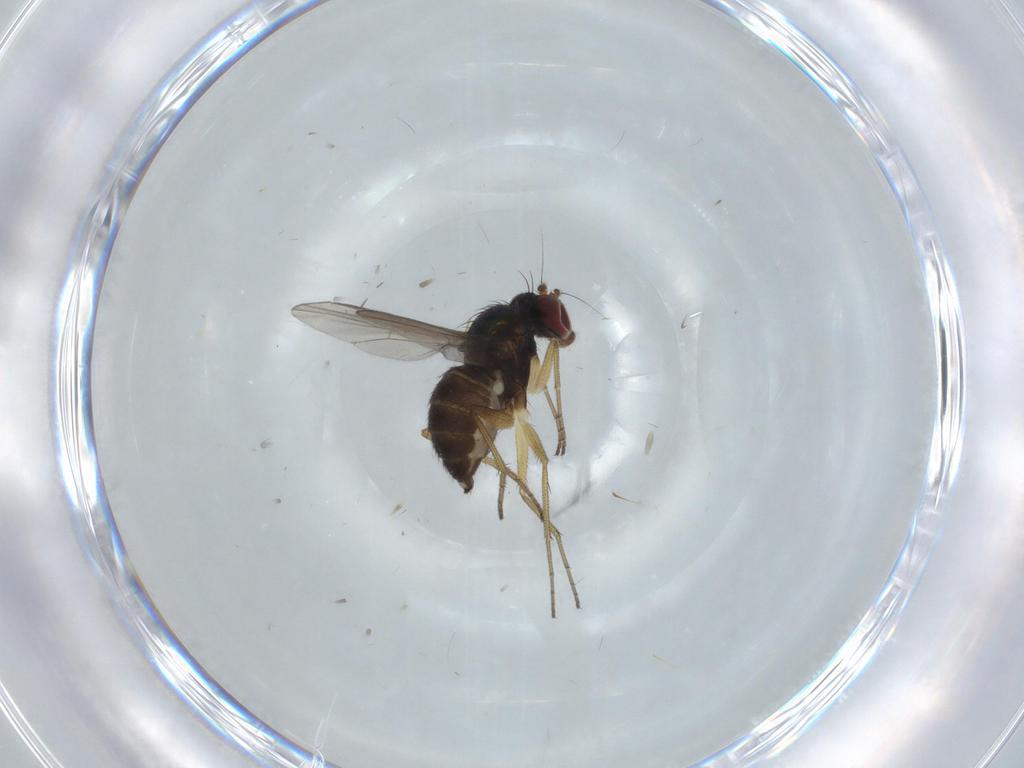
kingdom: Animalia
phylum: Arthropoda
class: Insecta
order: Diptera
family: Dolichopodidae
